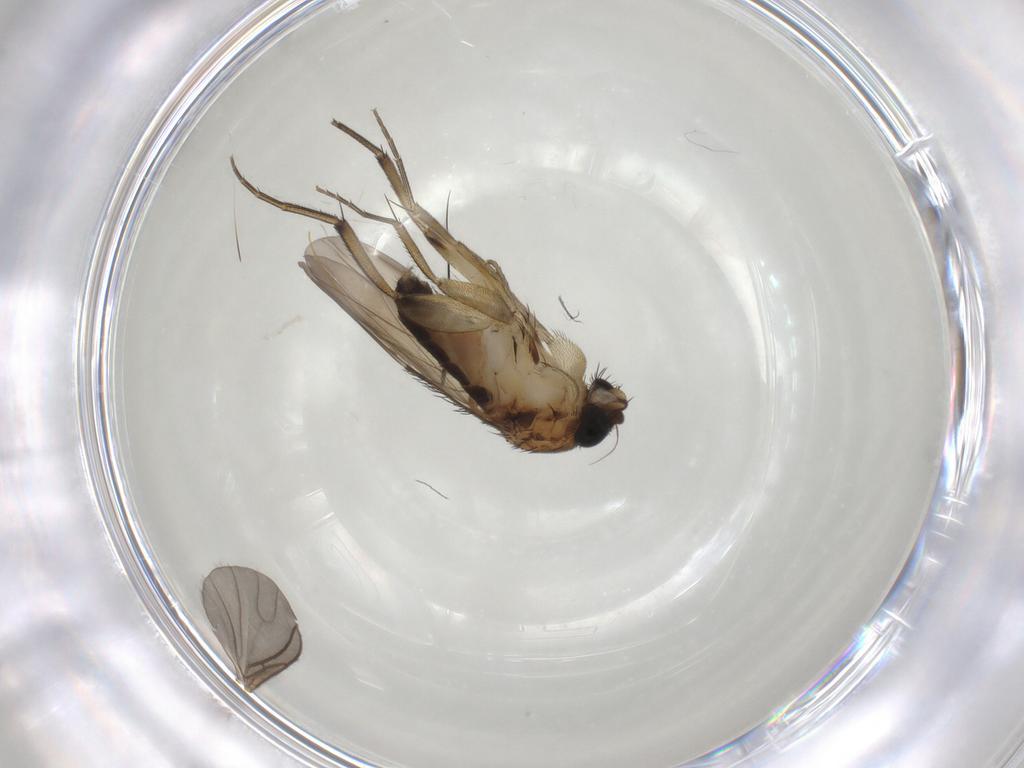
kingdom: Animalia
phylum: Arthropoda
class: Insecta
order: Diptera
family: Phoridae
